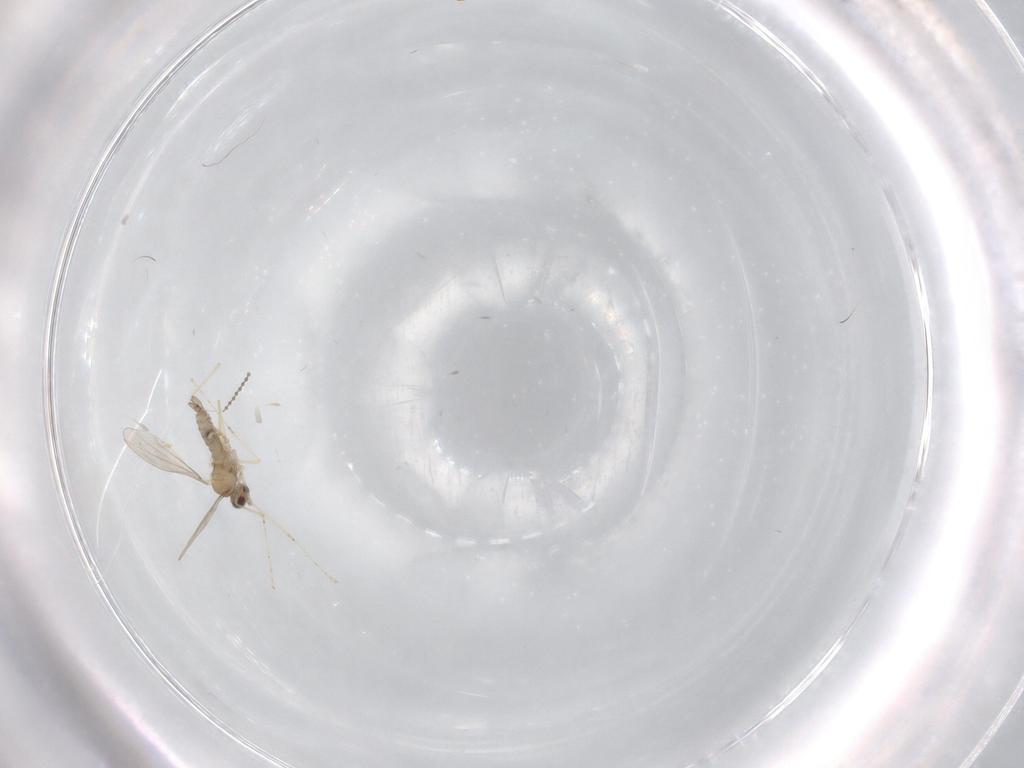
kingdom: Animalia
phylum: Arthropoda
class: Insecta
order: Diptera
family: Cecidomyiidae
